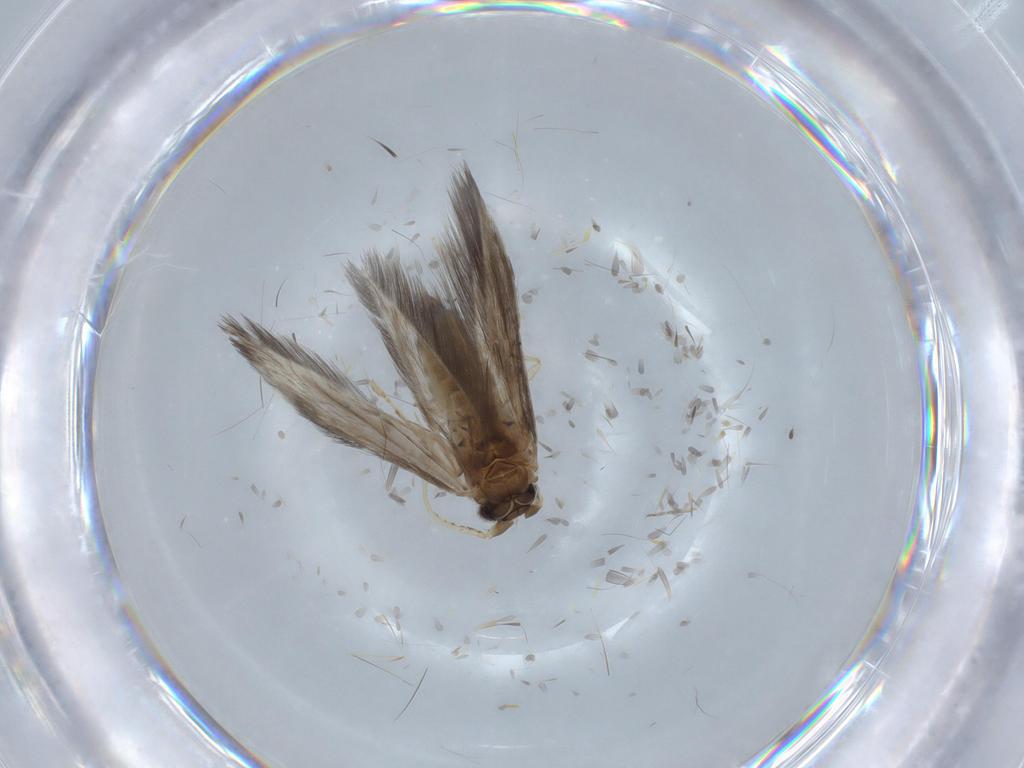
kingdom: Animalia
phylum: Arthropoda
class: Insecta
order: Trichoptera
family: Hydroptilidae
